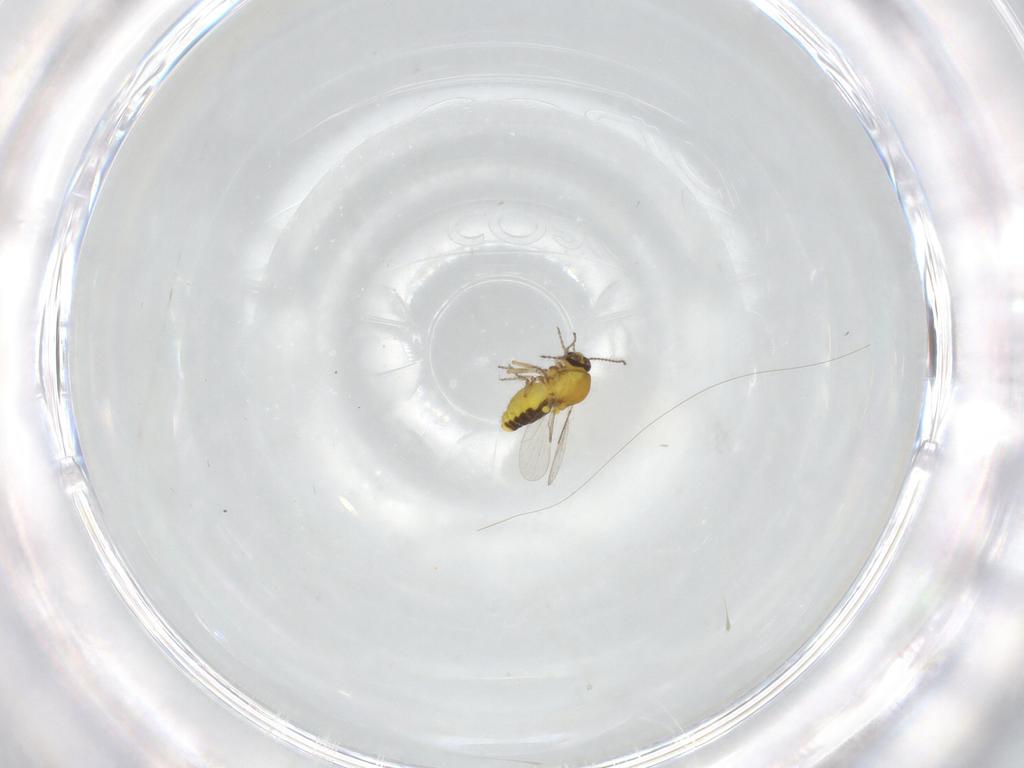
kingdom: Animalia
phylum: Arthropoda
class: Insecta
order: Diptera
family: Ceratopogonidae
